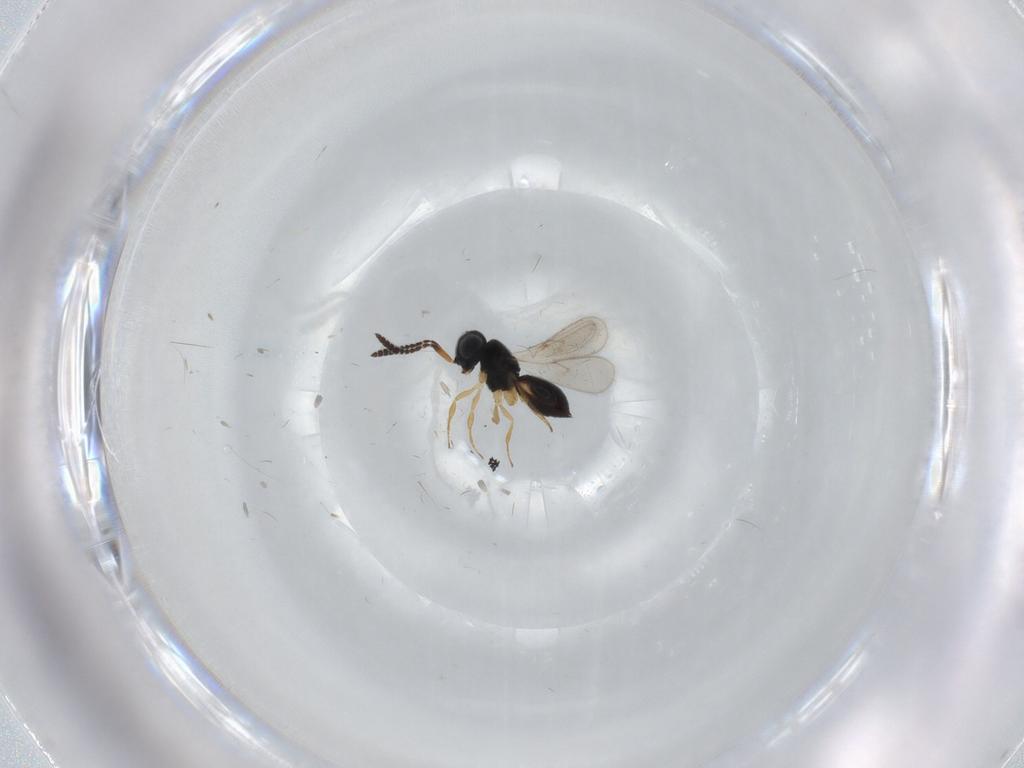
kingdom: Animalia
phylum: Arthropoda
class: Insecta
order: Hymenoptera
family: Scelionidae
